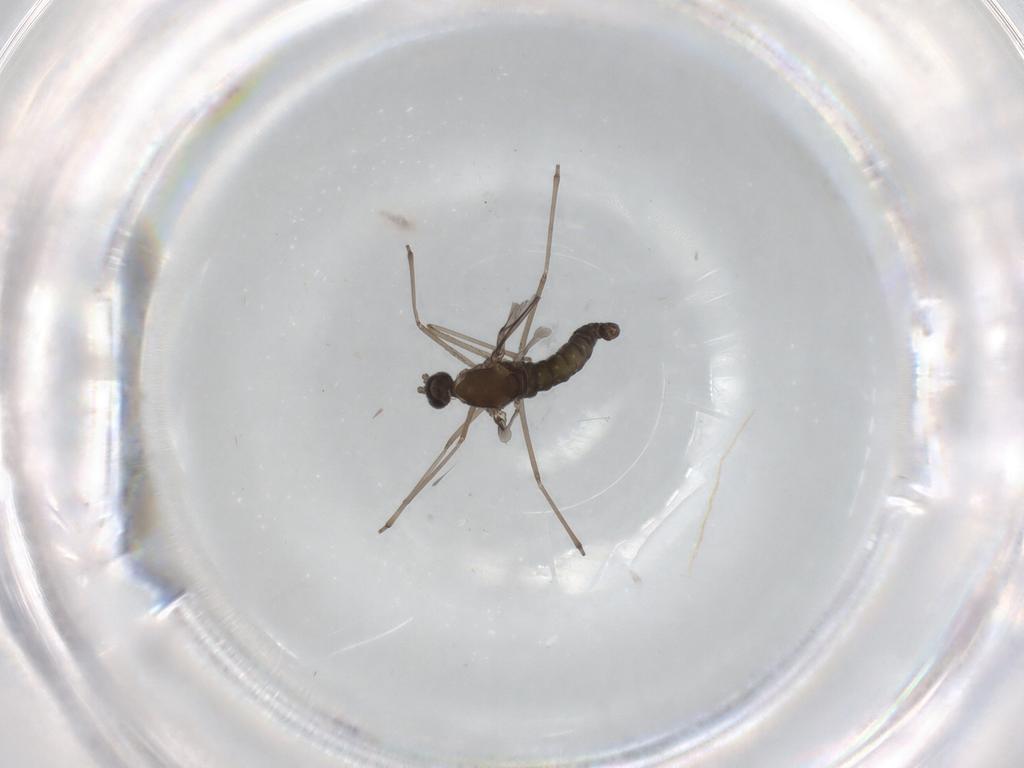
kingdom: Animalia
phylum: Arthropoda
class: Insecta
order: Diptera
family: Cecidomyiidae
